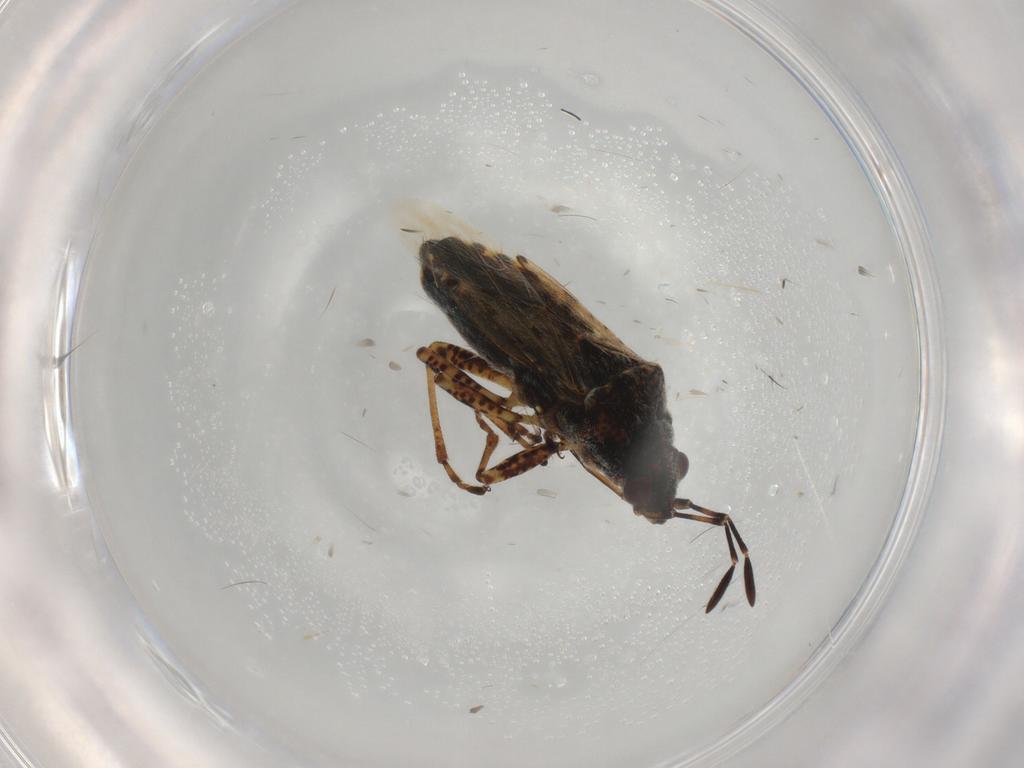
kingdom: Animalia
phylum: Arthropoda
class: Insecta
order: Hemiptera
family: Lygaeidae
